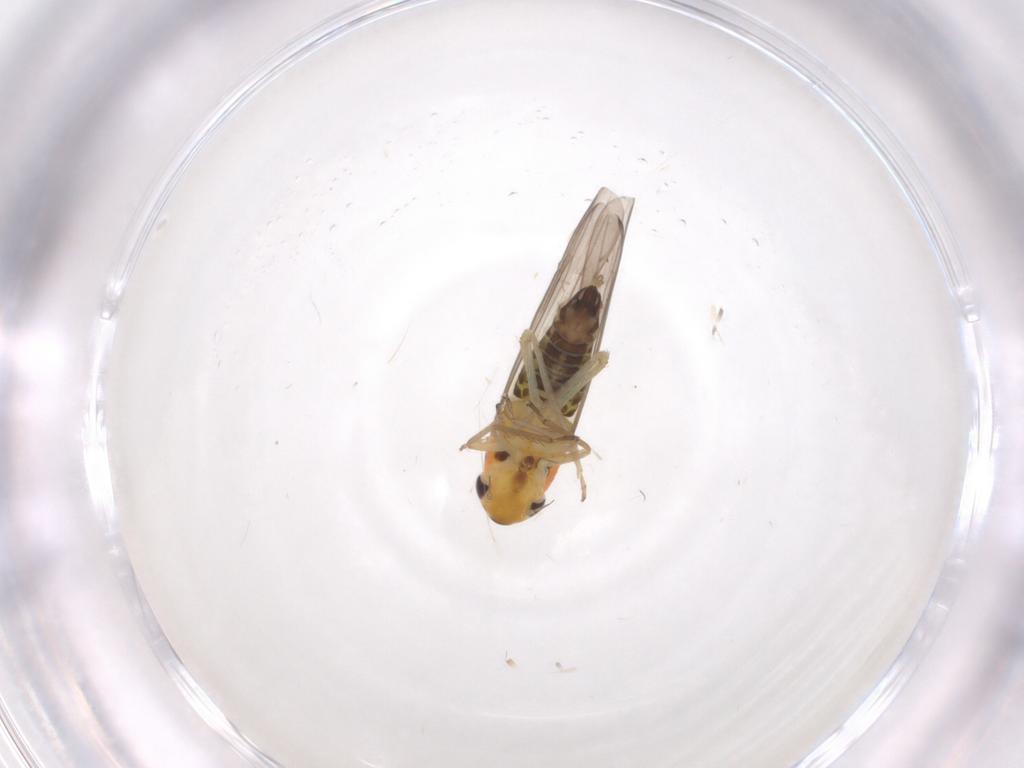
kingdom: Animalia
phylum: Arthropoda
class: Insecta
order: Hemiptera
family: Cicadellidae
